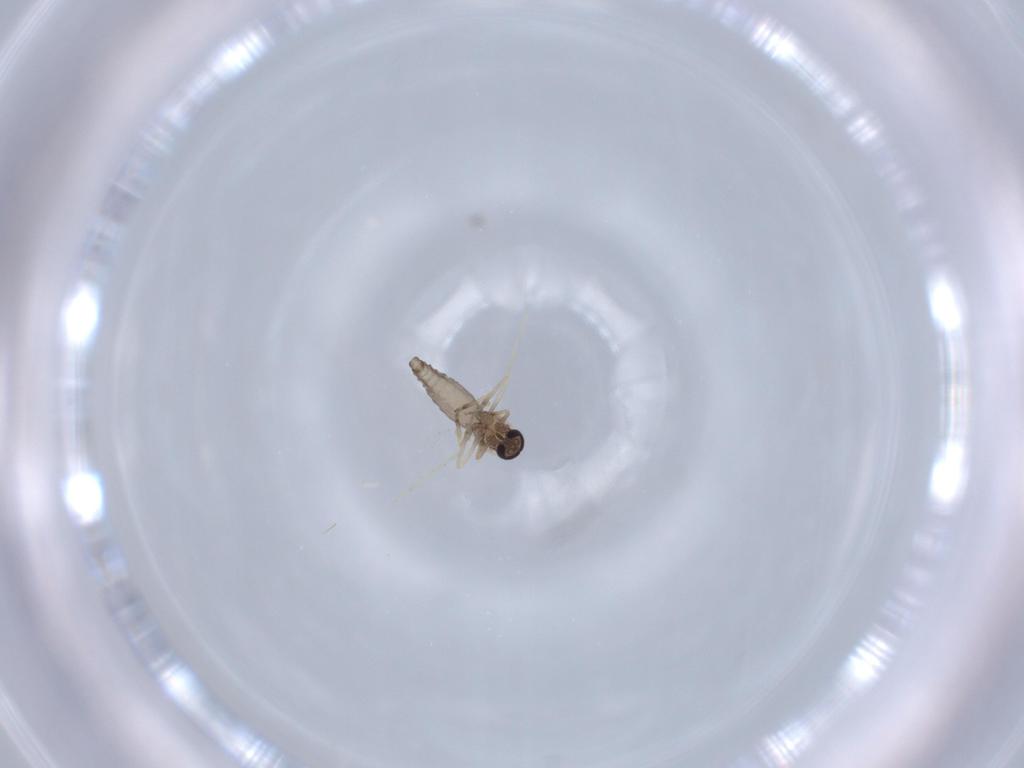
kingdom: Animalia
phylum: Arthropoda
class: Insecta
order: Diptera
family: Ceratopogonidae
